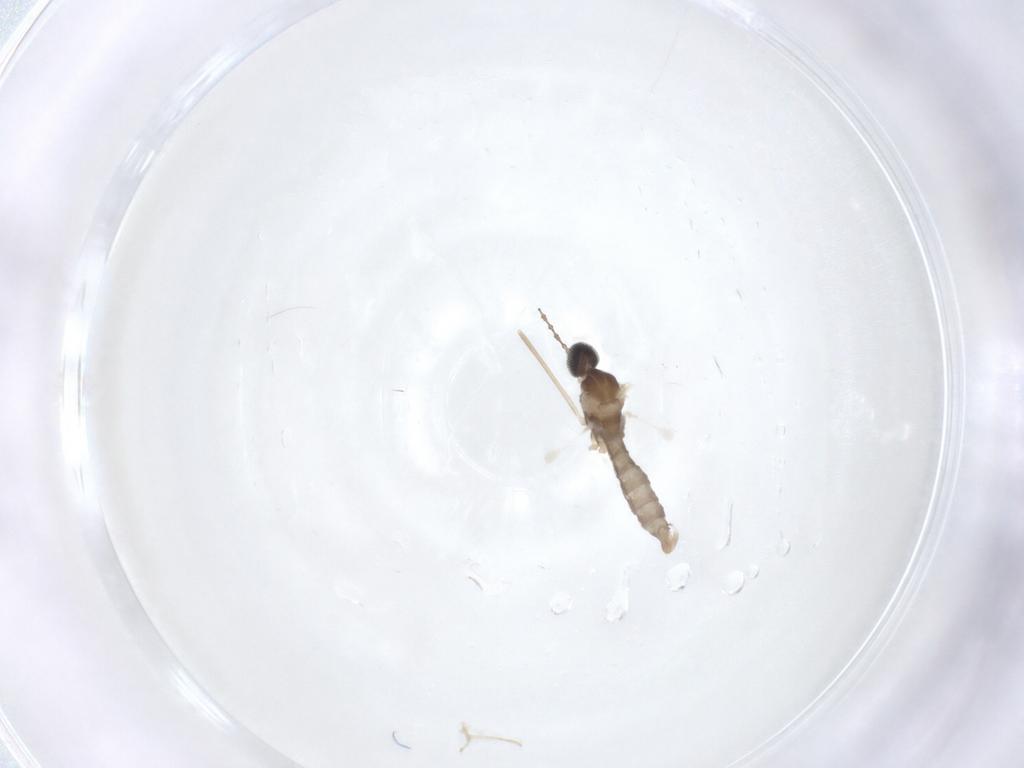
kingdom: Animalia
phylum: Arthropoda
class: Insecta
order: Diptera
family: Cecidomyiidae
